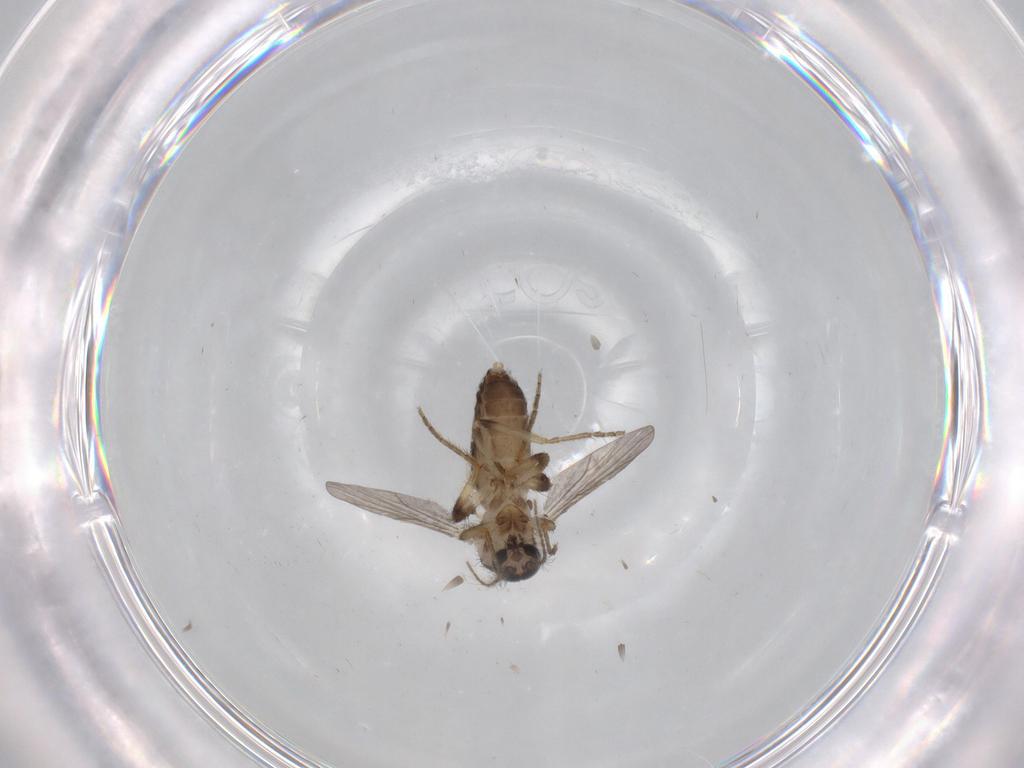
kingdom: Animalia
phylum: Arthropoda
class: Insecta
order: Diptera
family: Ceratopogonidae
